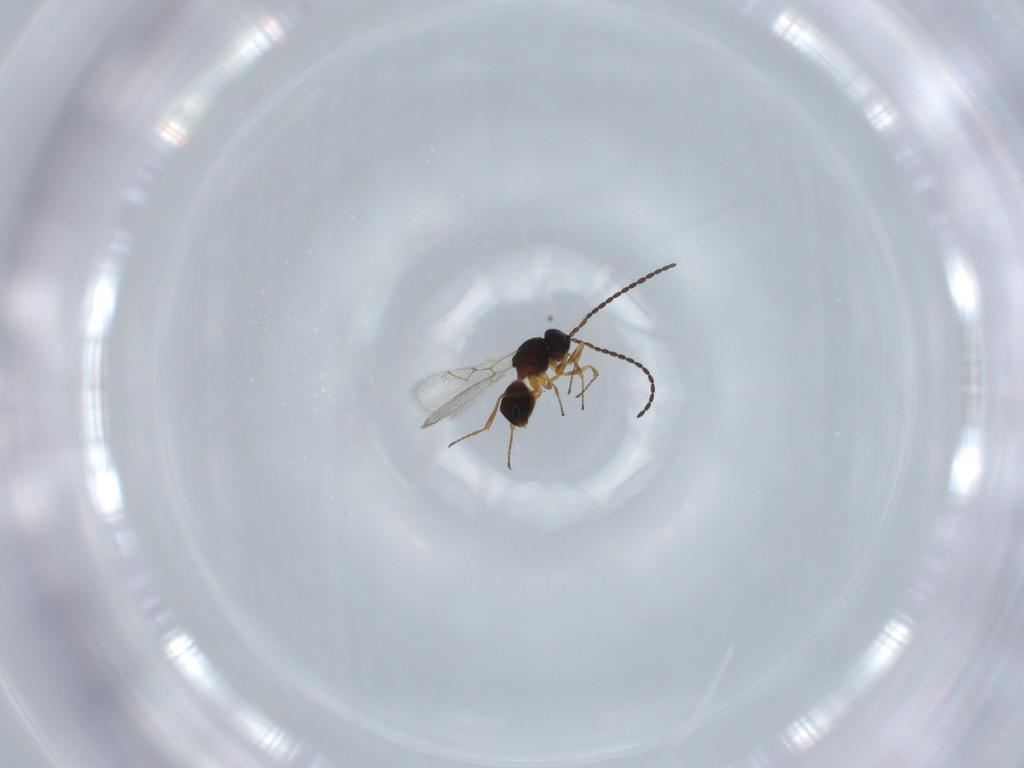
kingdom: Animalia
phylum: Arthropoda
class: Insecta
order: Hymenoptera
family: Figitidae
